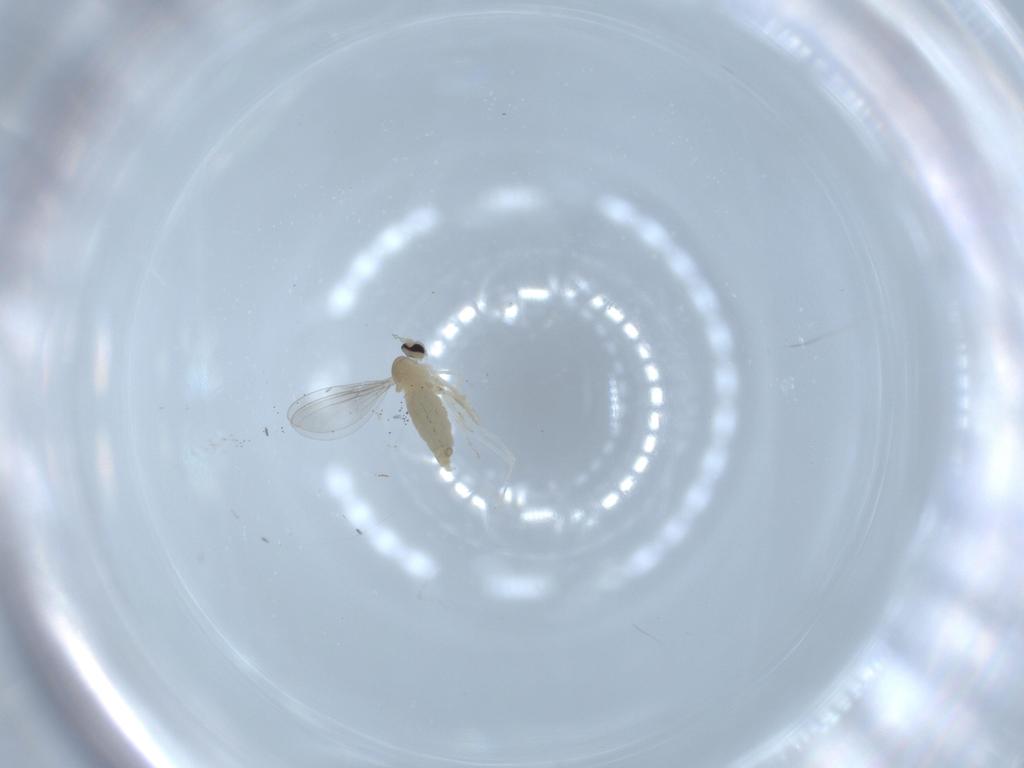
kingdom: Animalia
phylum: Arthropoda
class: Insecta
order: Diptera
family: Cecidomyiidae
